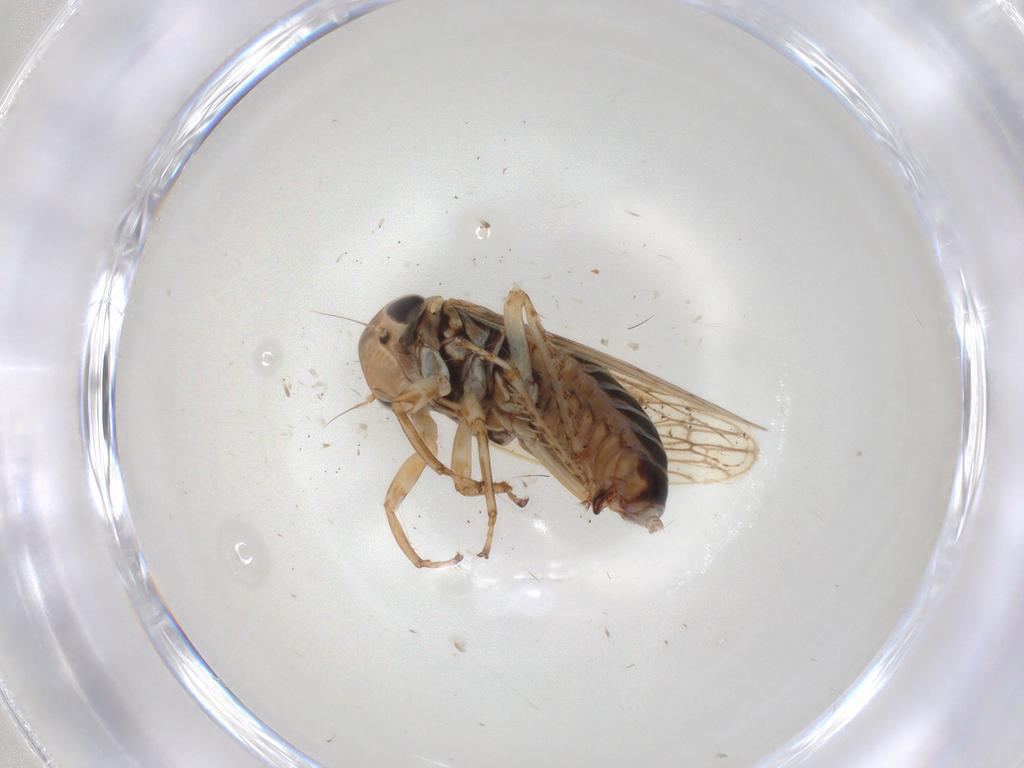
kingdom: Animalia
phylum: Arthropoda
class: Insecta
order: Hemiptera
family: Cicadellidae
